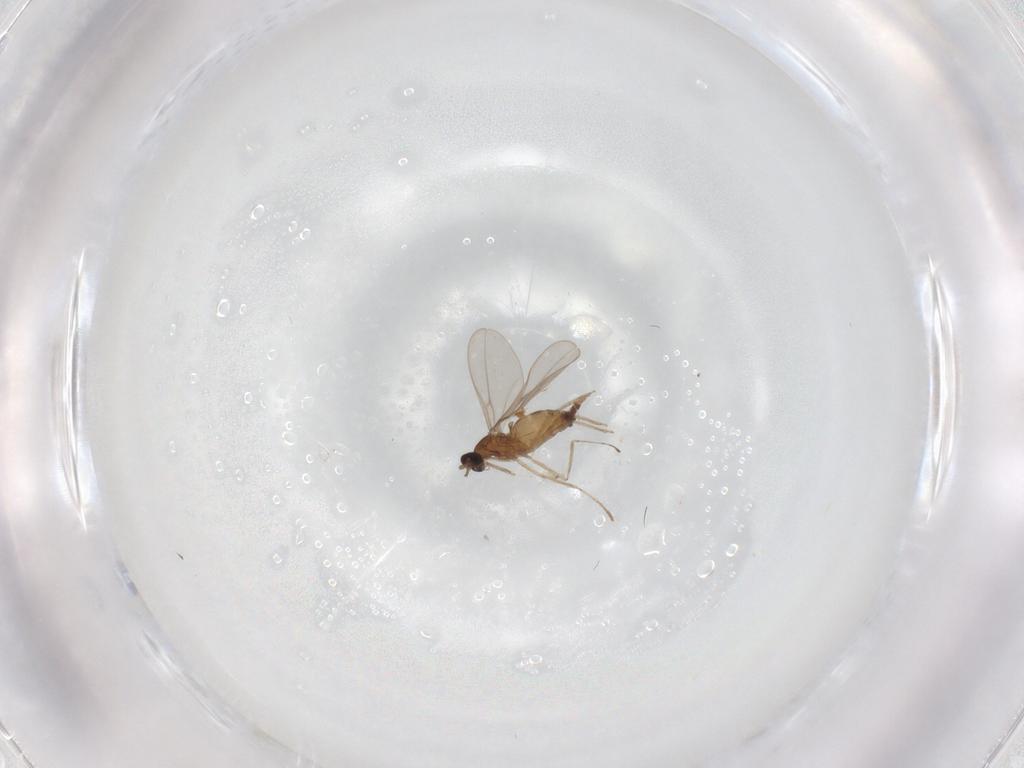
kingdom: Animalia
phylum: Arthropoda
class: Insecta
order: Diptera
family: Cecidomyiidae
